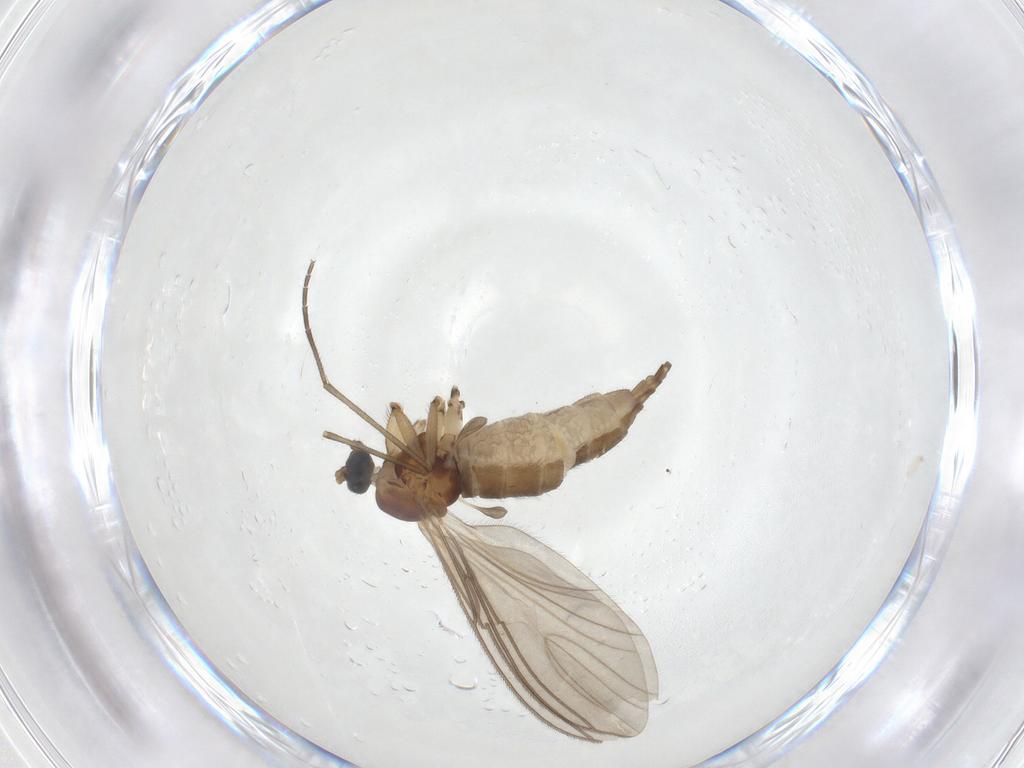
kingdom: Animalia
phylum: Arthropoda
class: Insecta
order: Diptera
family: Sciaridae
